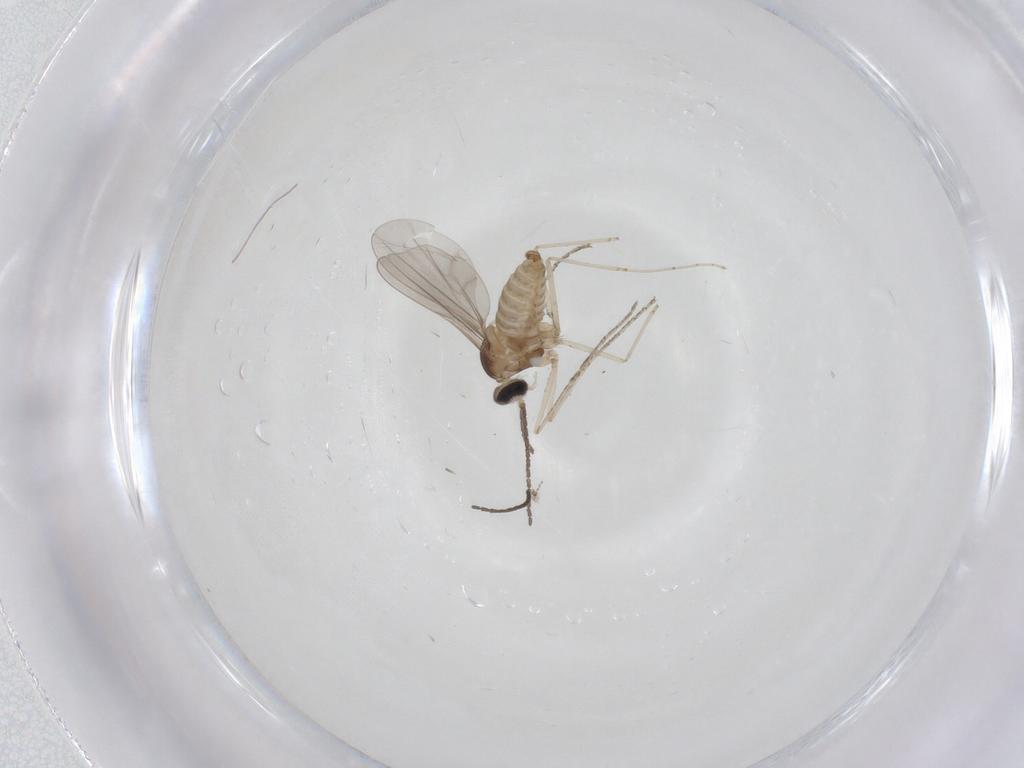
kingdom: Animalia
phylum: Arthropoda
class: Insecta
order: Diptera
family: Cecidomyiidae
